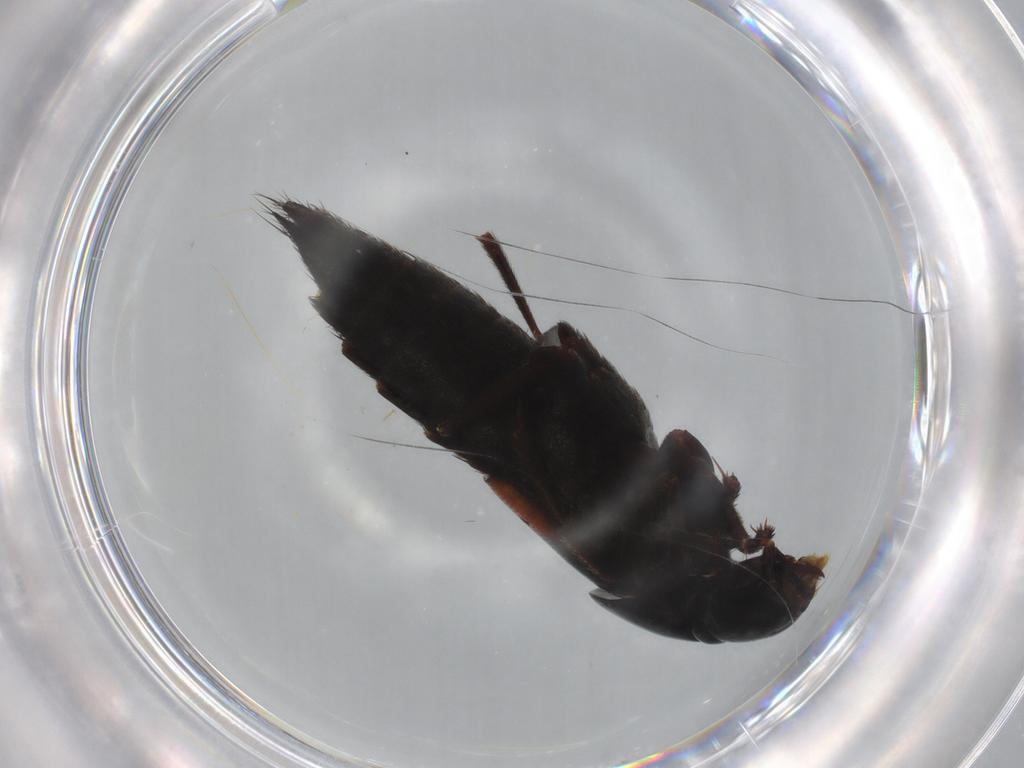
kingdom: Animalia
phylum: Arthropoda
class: Insecta
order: Coleoptera
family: Staphylinidae
